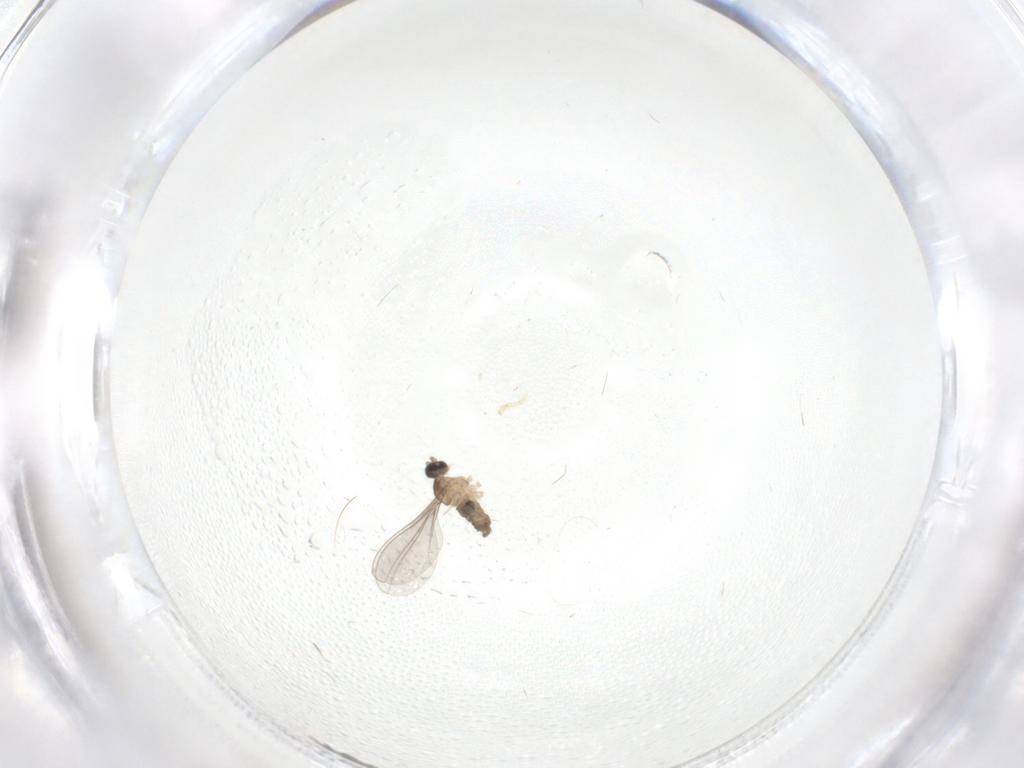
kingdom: Animalia
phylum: Arthropoda
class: Insecta
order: Diptera
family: Cecidomyiidae
